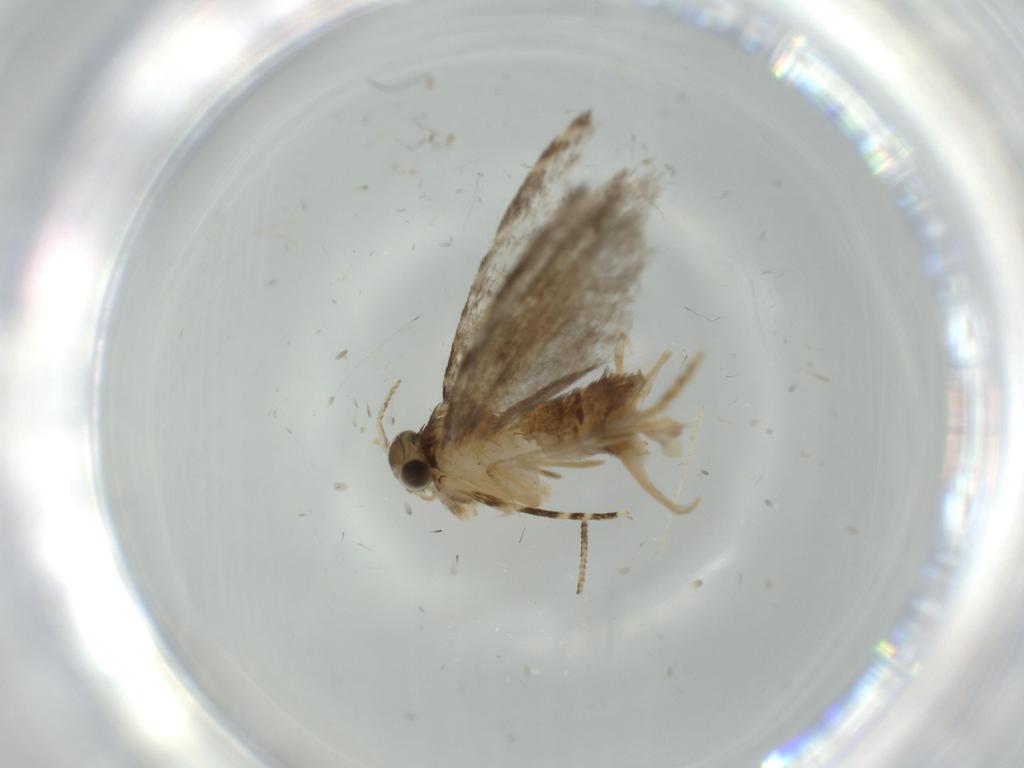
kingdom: Animalia
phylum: Arthropoda
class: Insecta
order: Lepidoptera
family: Tineidae
